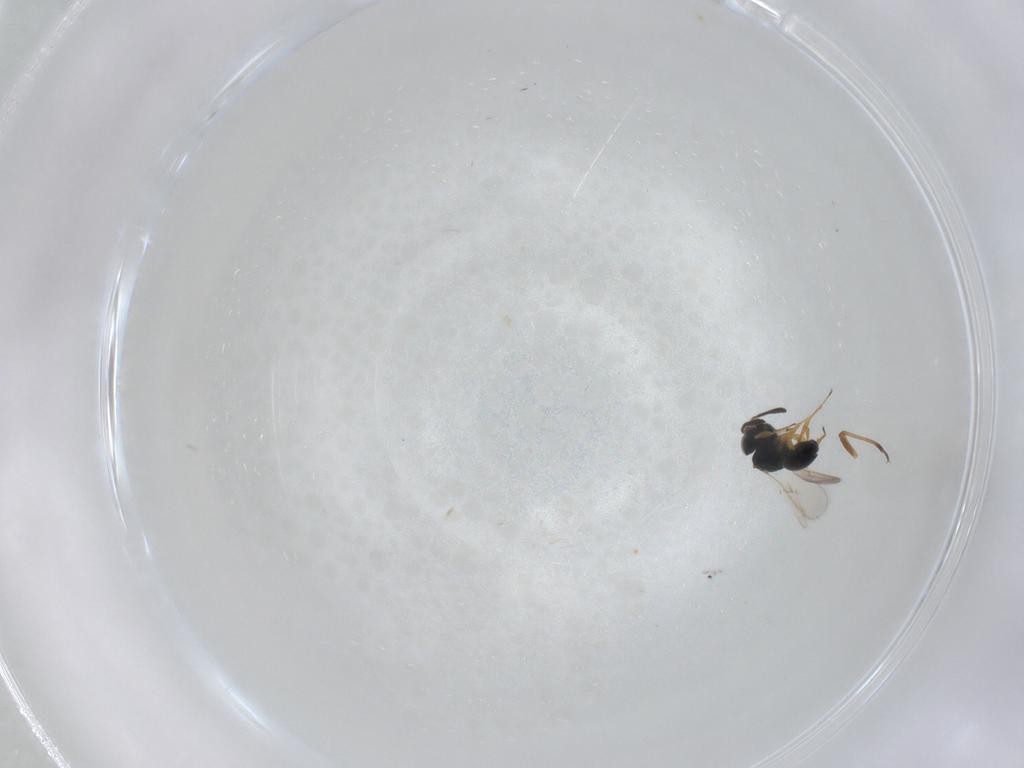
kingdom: Animalia
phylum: Arthropoda
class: Insecta
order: Hymenoptera
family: Scelionidae
